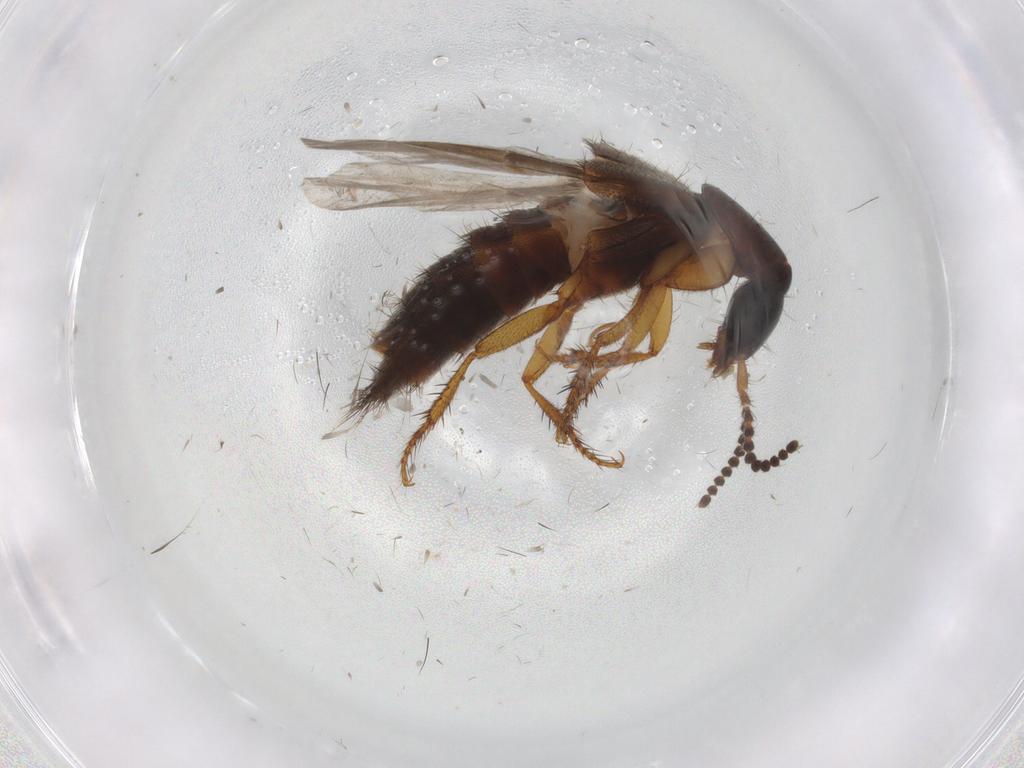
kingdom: Animalia
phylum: Arthropoda
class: Insecta
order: Coleoptera
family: Staphylinidae
